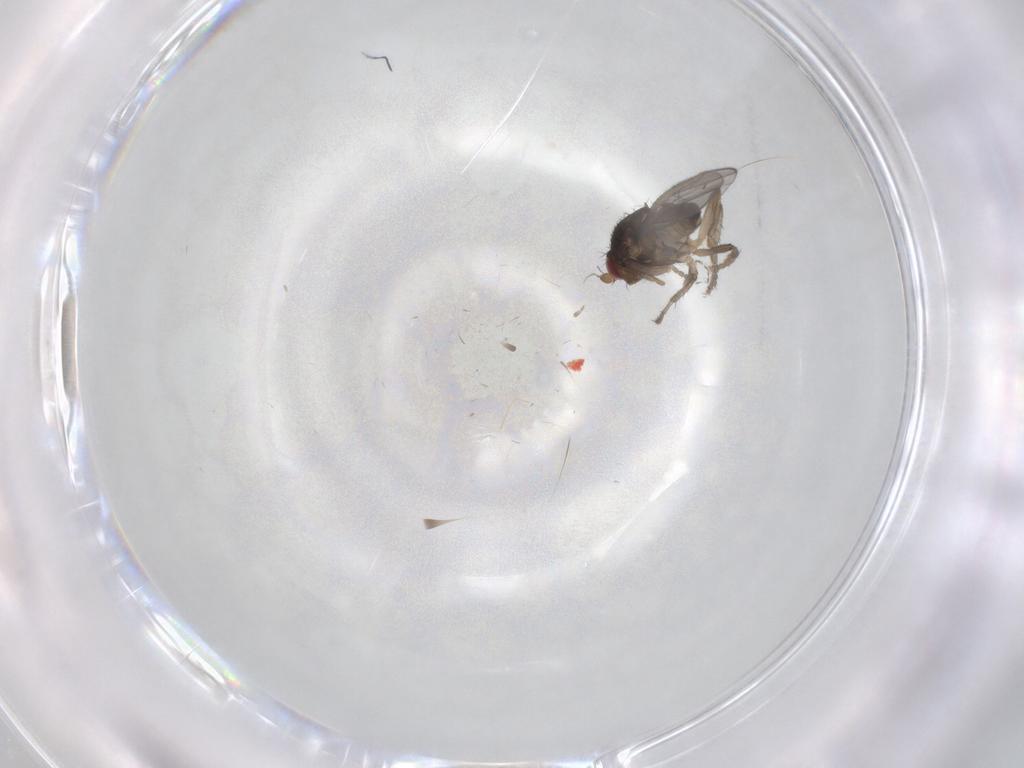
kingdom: Animalia
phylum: Arthropoda
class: Insecta
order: Diptera
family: Sphaeroceridae
